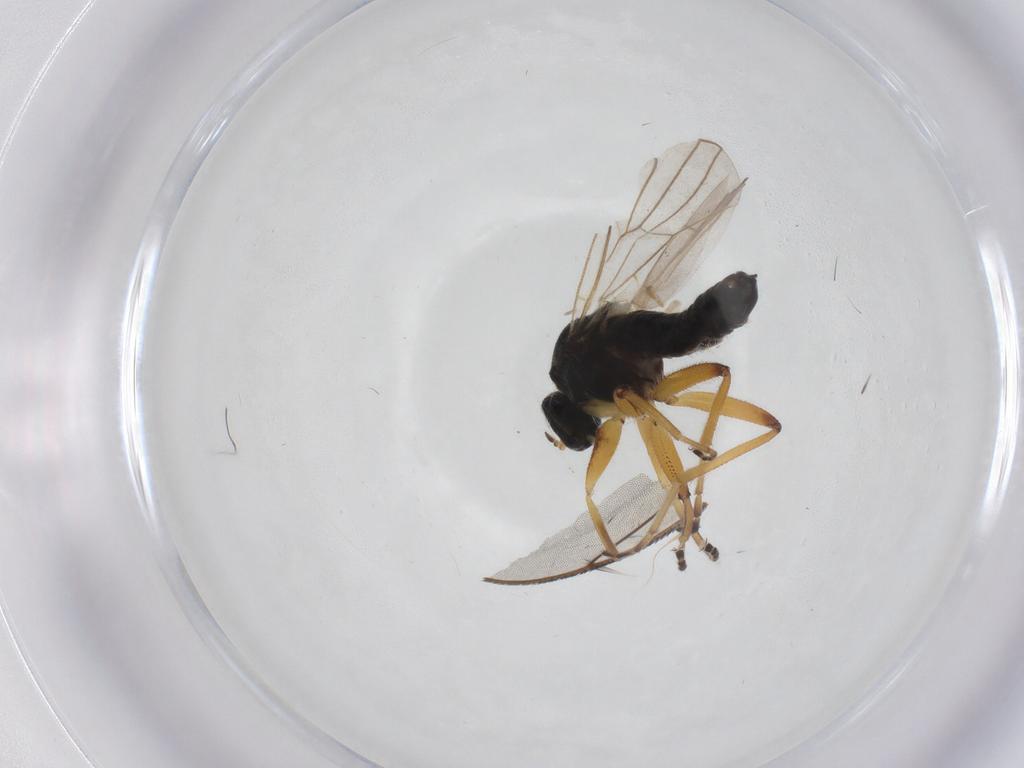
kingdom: Animalia
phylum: Arthropoda
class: Insecta
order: Diptera
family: Hybotidae
